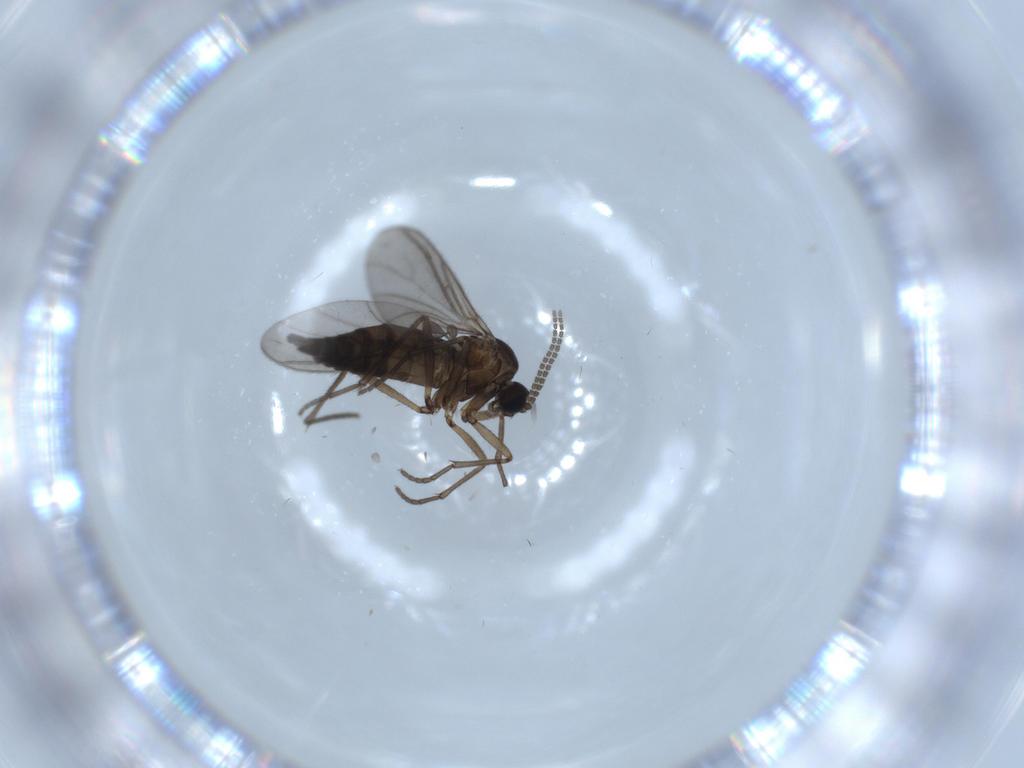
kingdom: Animalia
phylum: Arthropoda
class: Insecta
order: Diptera
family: Sciaridae
